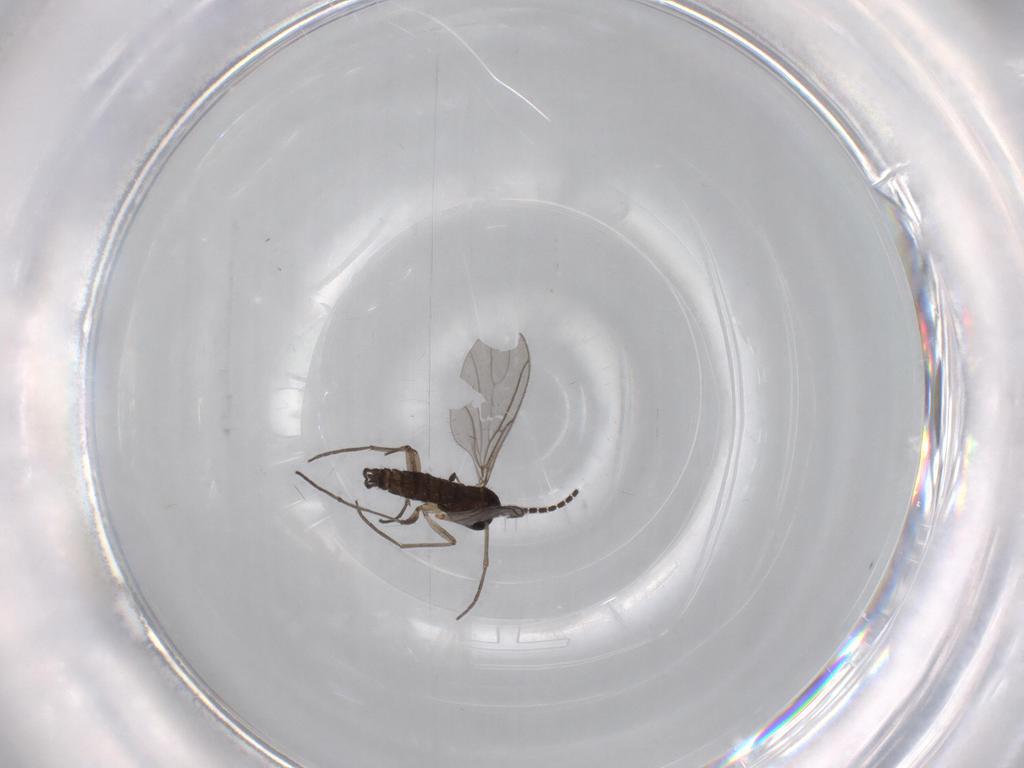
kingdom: Animalia
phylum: Arthropoda
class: Insecta
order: Diptera
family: Sciaridae
